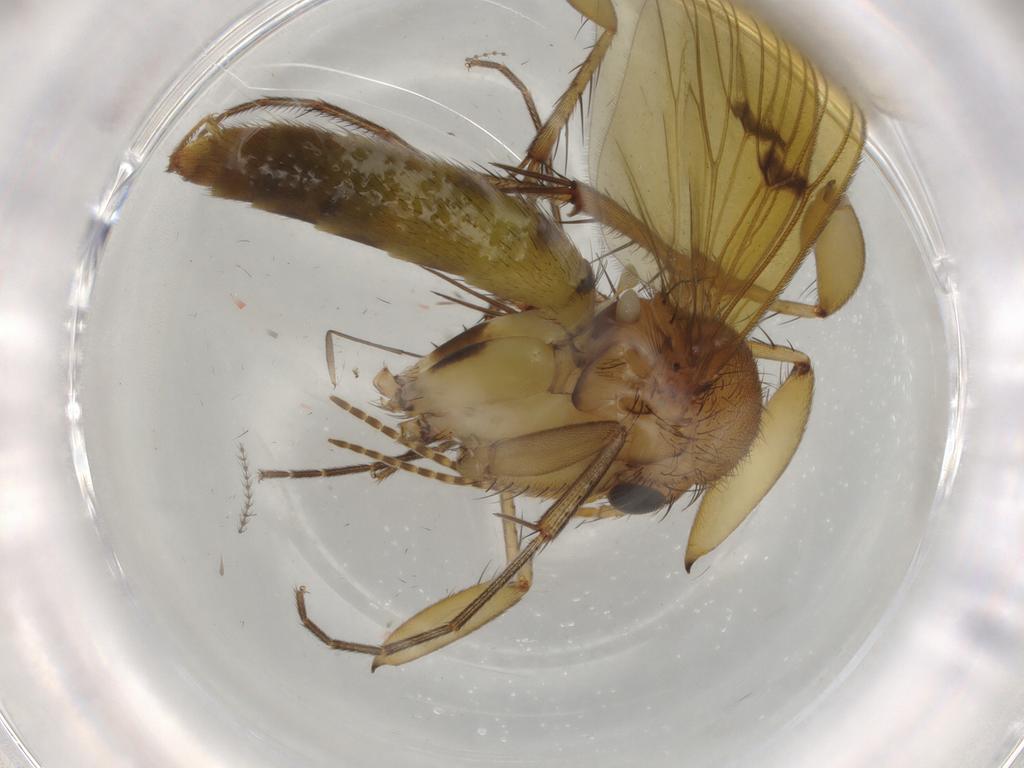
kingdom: Animalia
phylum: Arthropoda
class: Insecta
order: Diptera
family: Mycetophilidae
